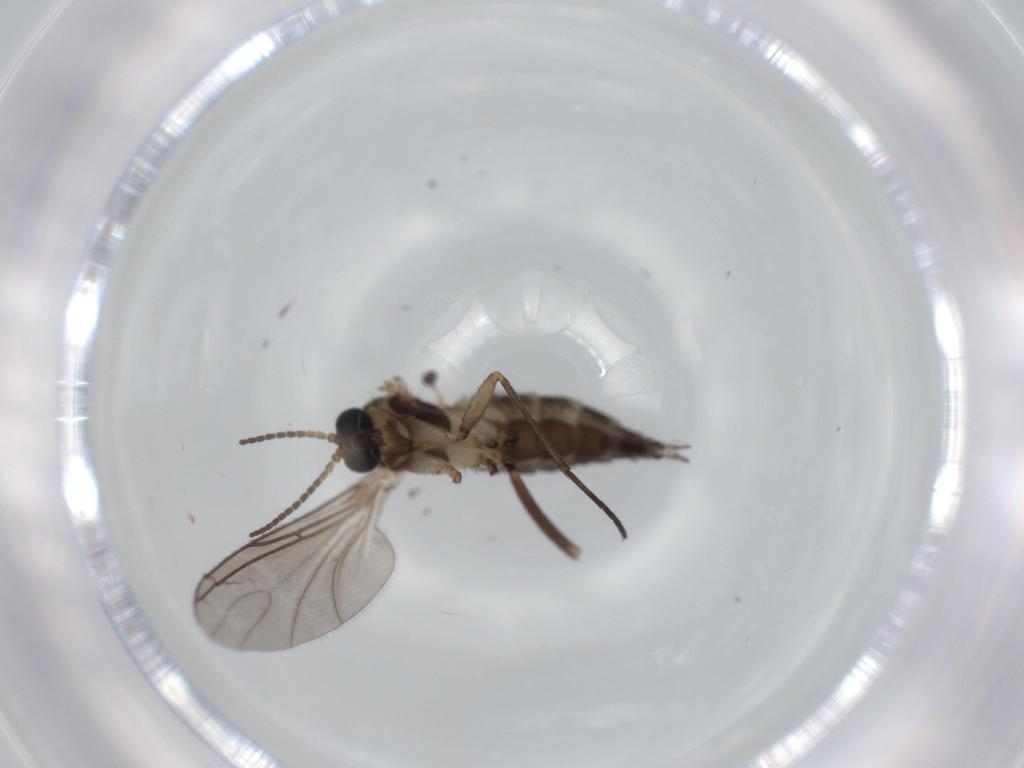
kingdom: Animalia
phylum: Arthropoda
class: Insecta
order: Diptera
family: Sciaridae
